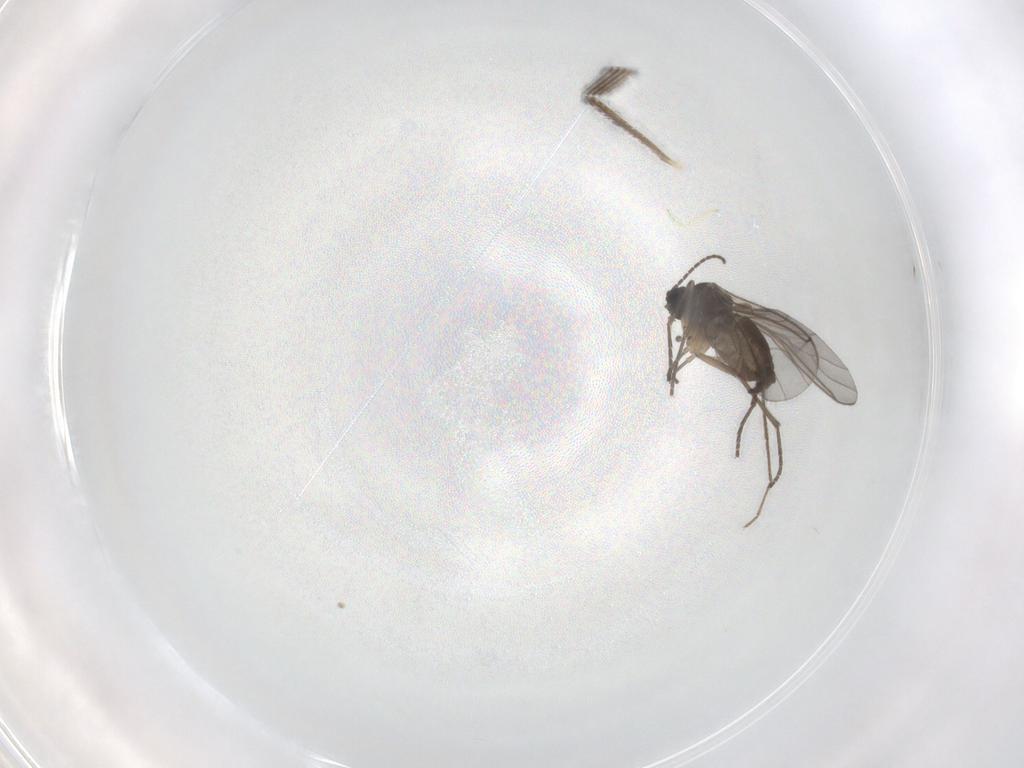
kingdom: Animalia
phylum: Arthropoda
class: Insecta
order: Diptera
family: Sciaridae
